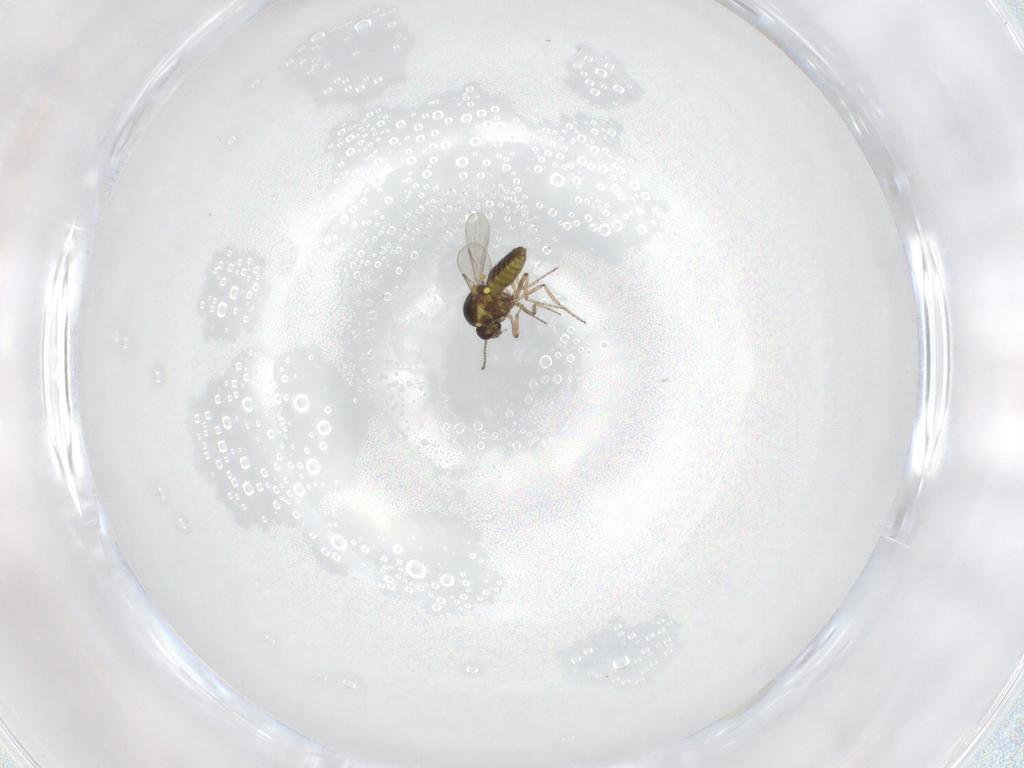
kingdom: Animalia
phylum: Arthropoda
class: Insecta
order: Diptera
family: Ceratopogonidae
